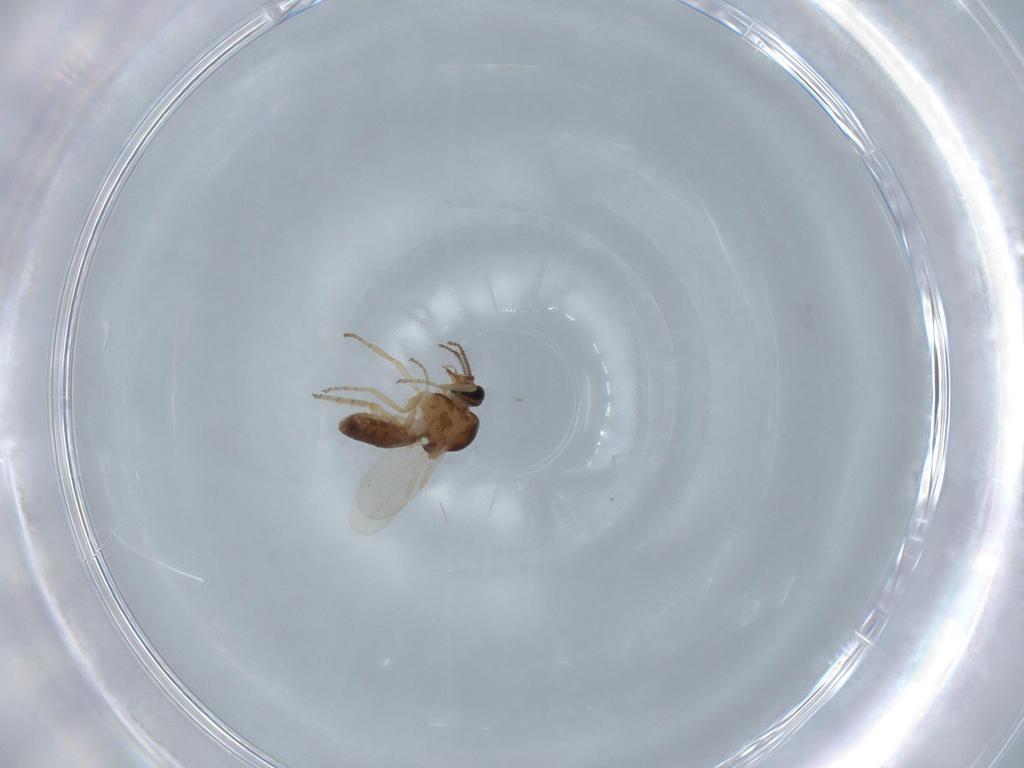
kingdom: Animalia
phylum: Arthropoda
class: Insecta
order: Diptera
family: Ceratopogonidae
